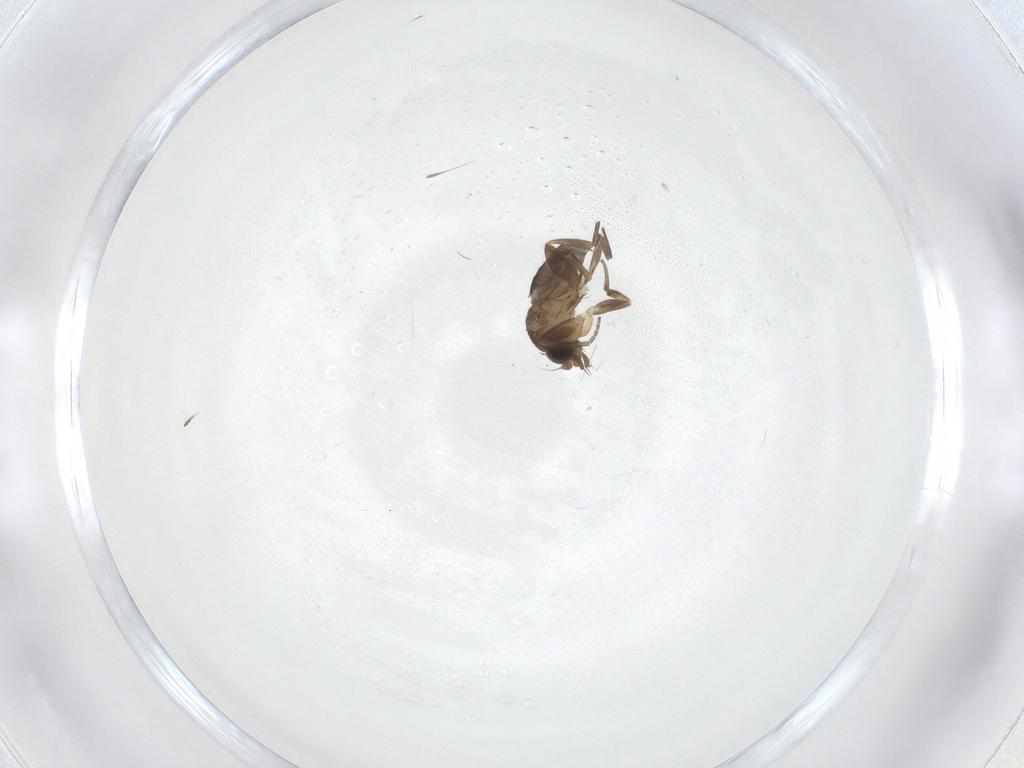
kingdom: Animalia
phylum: Arthropoda
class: Insecta
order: Diptera
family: Phoridae
